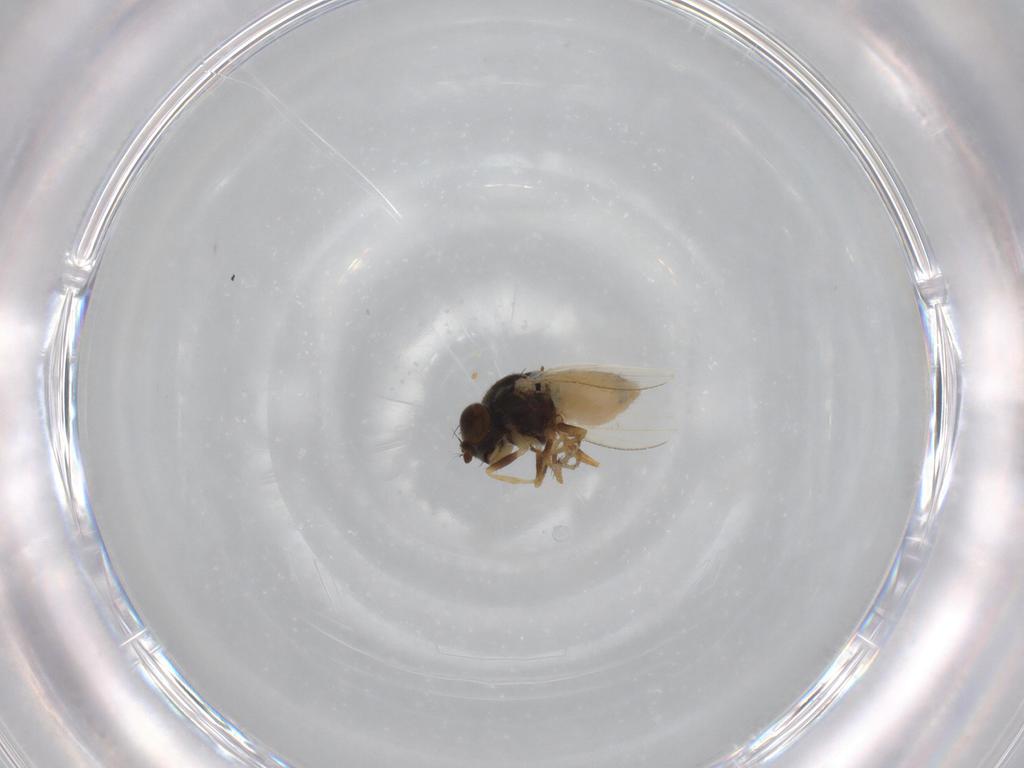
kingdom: Animalia
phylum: Arthropoda
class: Insecta
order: Diptera
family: Ephydridae
